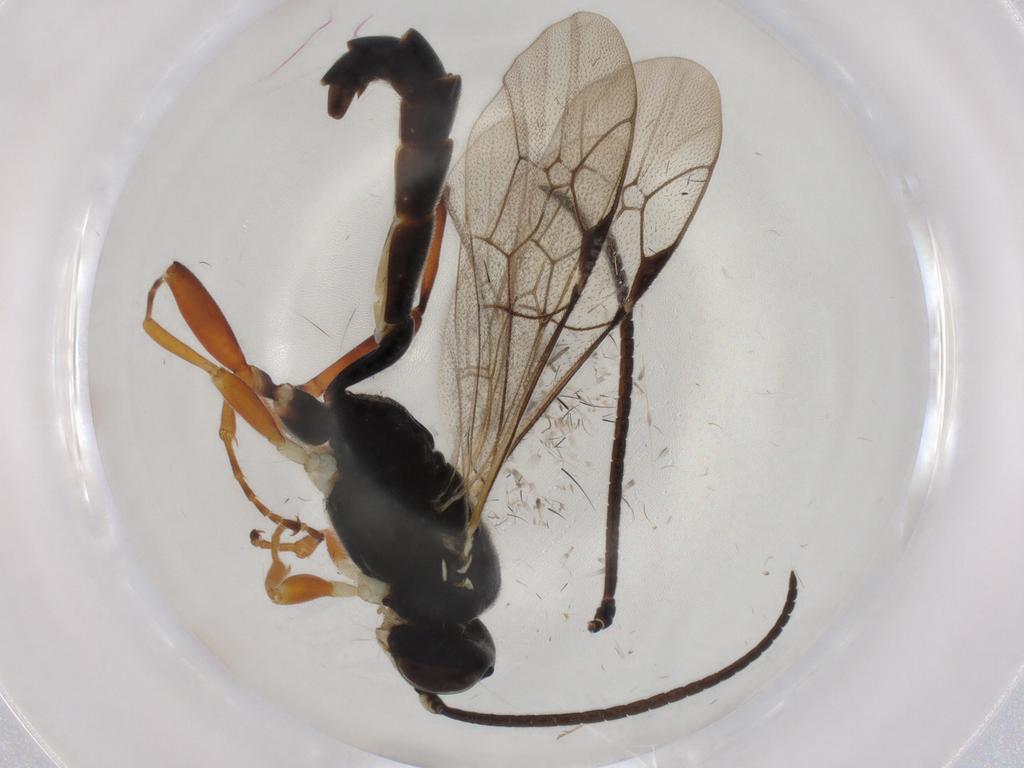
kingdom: Animalia
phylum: Arthropoda
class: Insecta
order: Hymenoptera
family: Ichneumonidae
